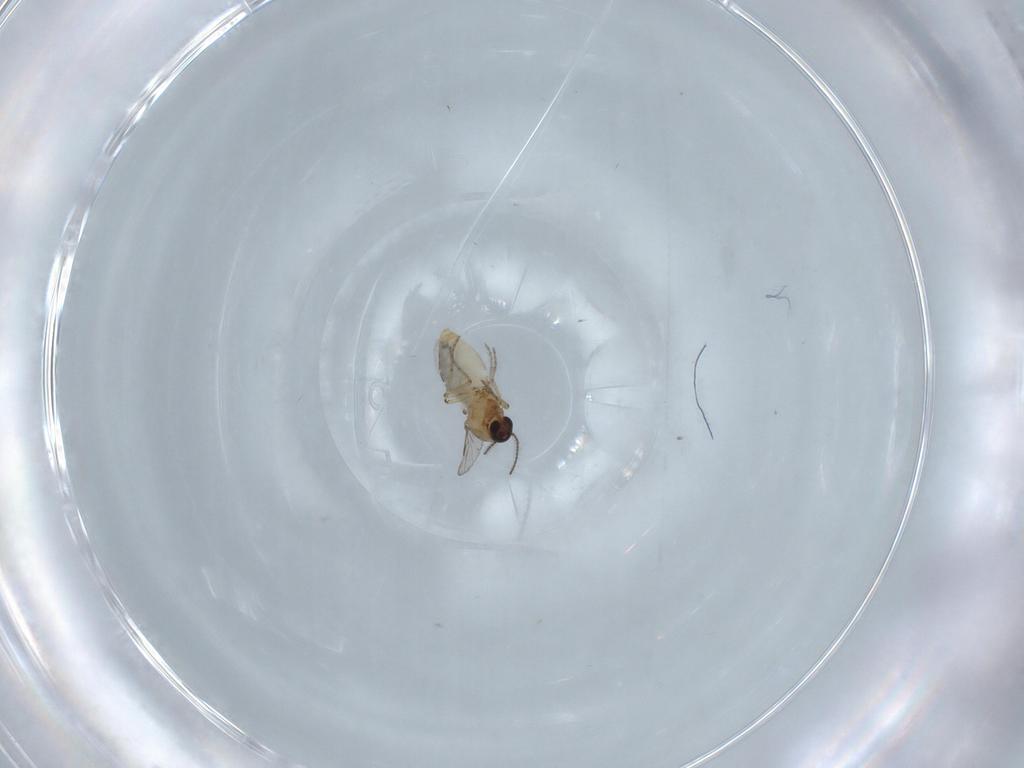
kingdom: Animalia
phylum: Arthropoda
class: Insecta
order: Diptera
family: Ceratopogonidae
